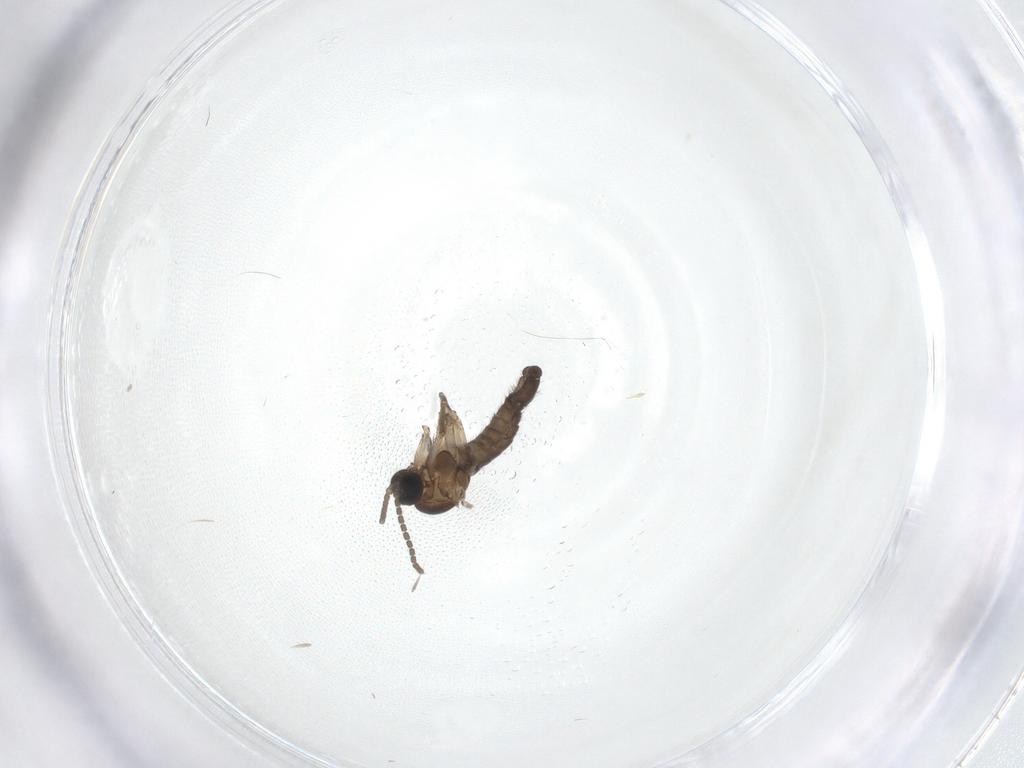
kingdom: Animalia
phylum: Arthropoda
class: Insecta
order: Diptera
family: Sciaridae
